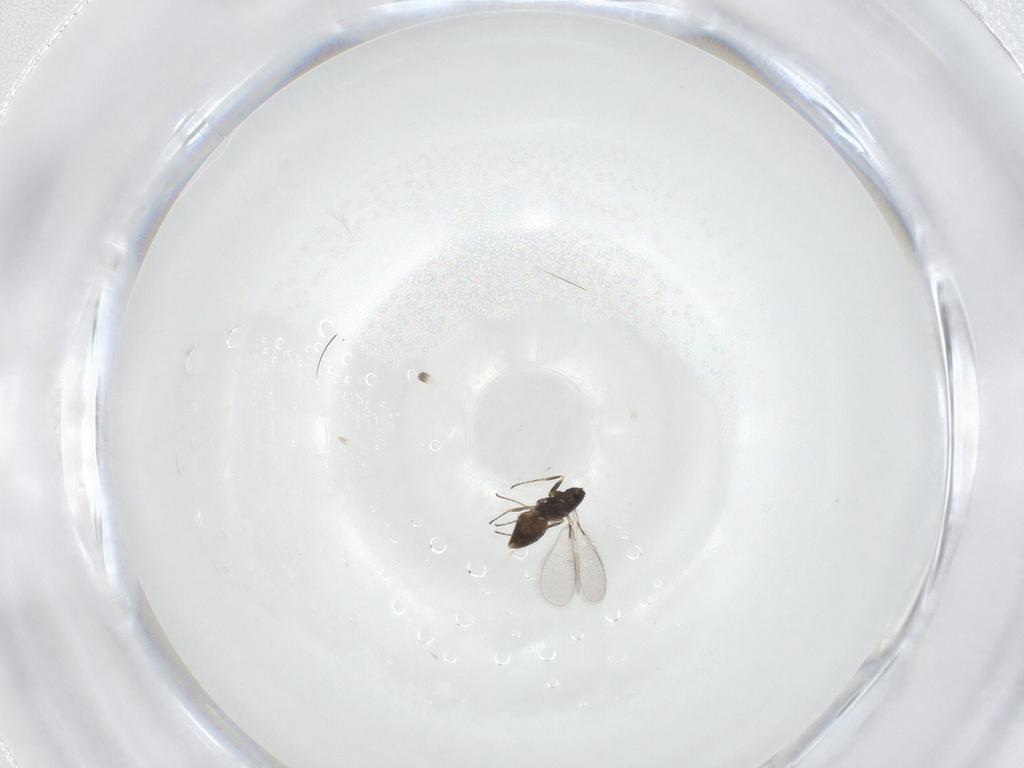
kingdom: Animalia
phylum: Arthropoda
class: Insecta
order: Hymenoptera
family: Mymaridae
